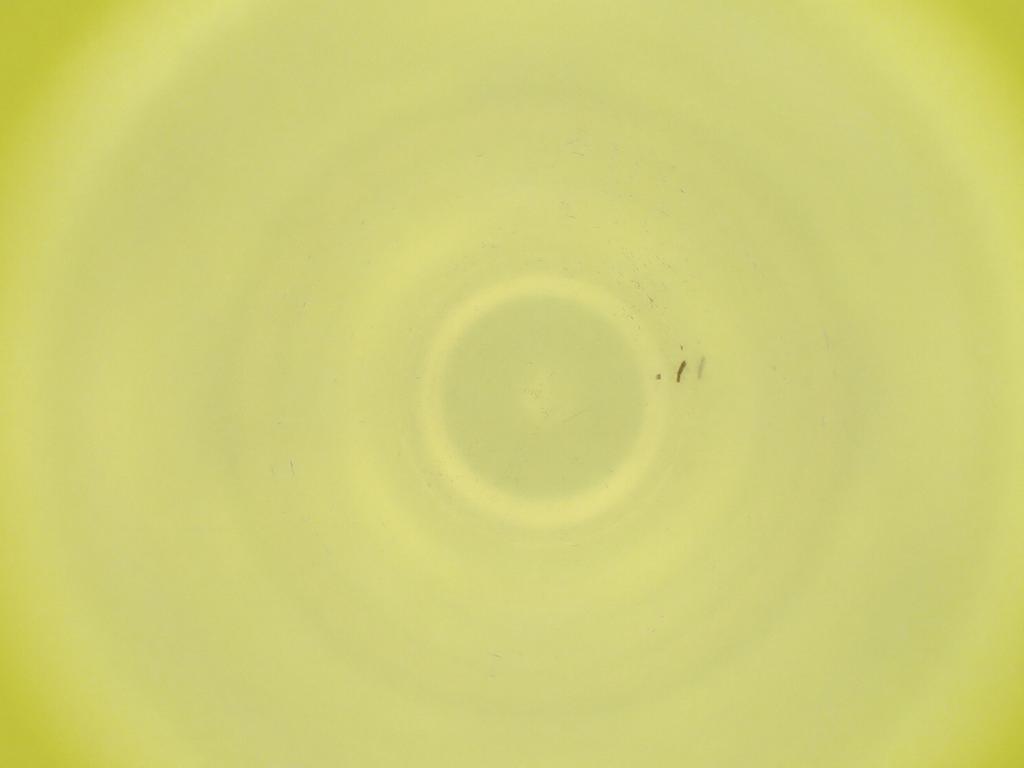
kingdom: Animalia
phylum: Arthropoda
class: Insecta
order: Diptera
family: Cecidomyiidae
